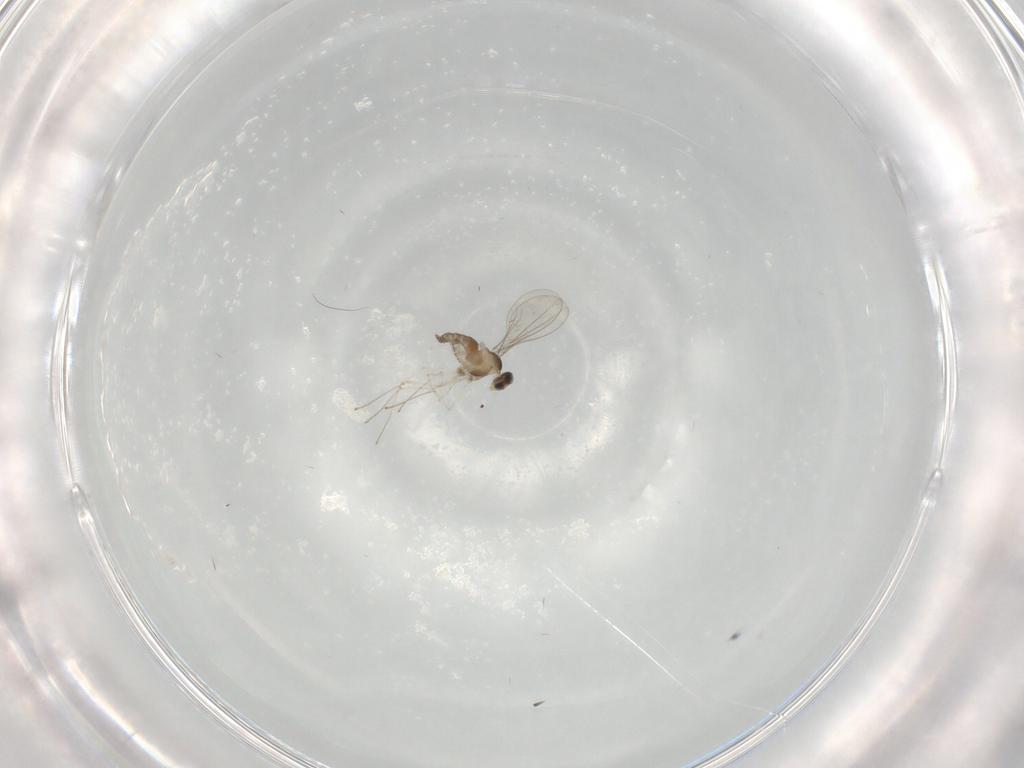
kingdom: Animalia
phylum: Arthropoda
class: Insecta
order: Diptera
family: Cecidomyiidae
